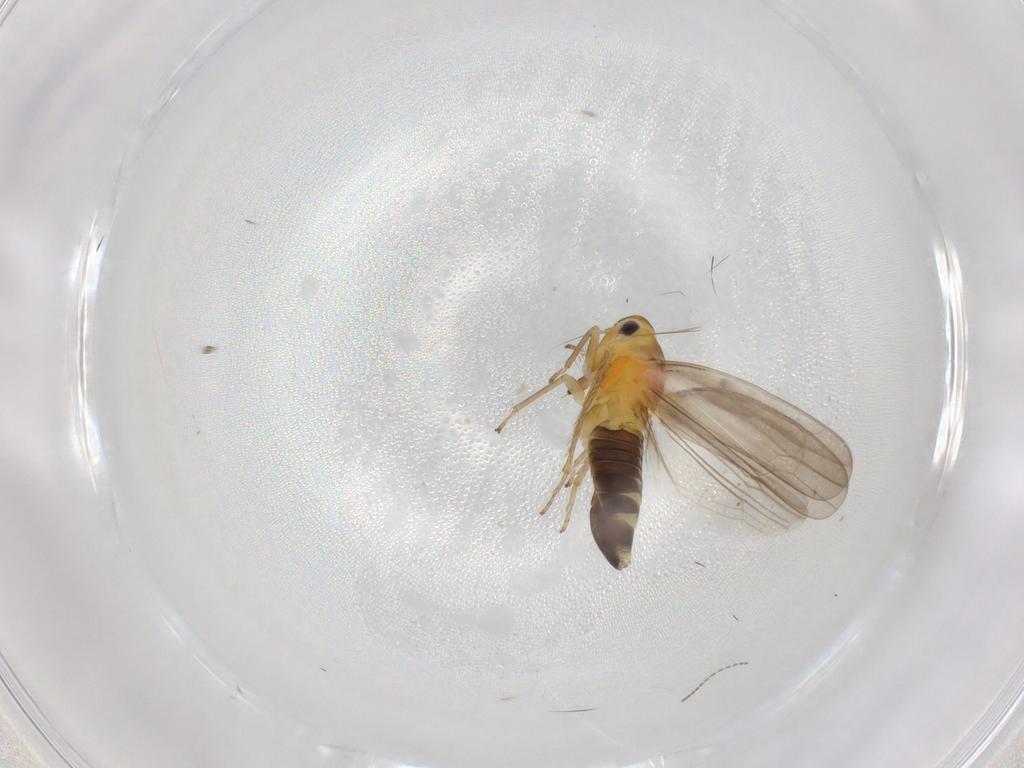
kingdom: Animalia
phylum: Arthropoda
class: Insecta
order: Hemiptera
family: Cicadellidae
